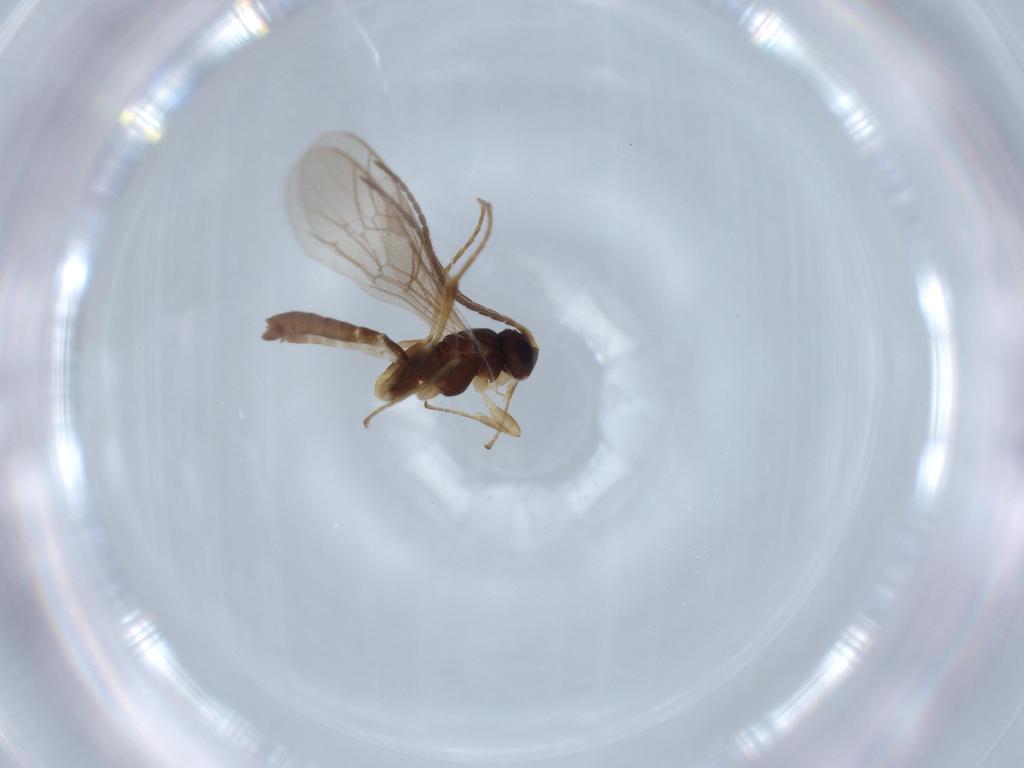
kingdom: Animalia
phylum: Arthropoda
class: Insecta
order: Hymenoptera
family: Ichneumonidae
